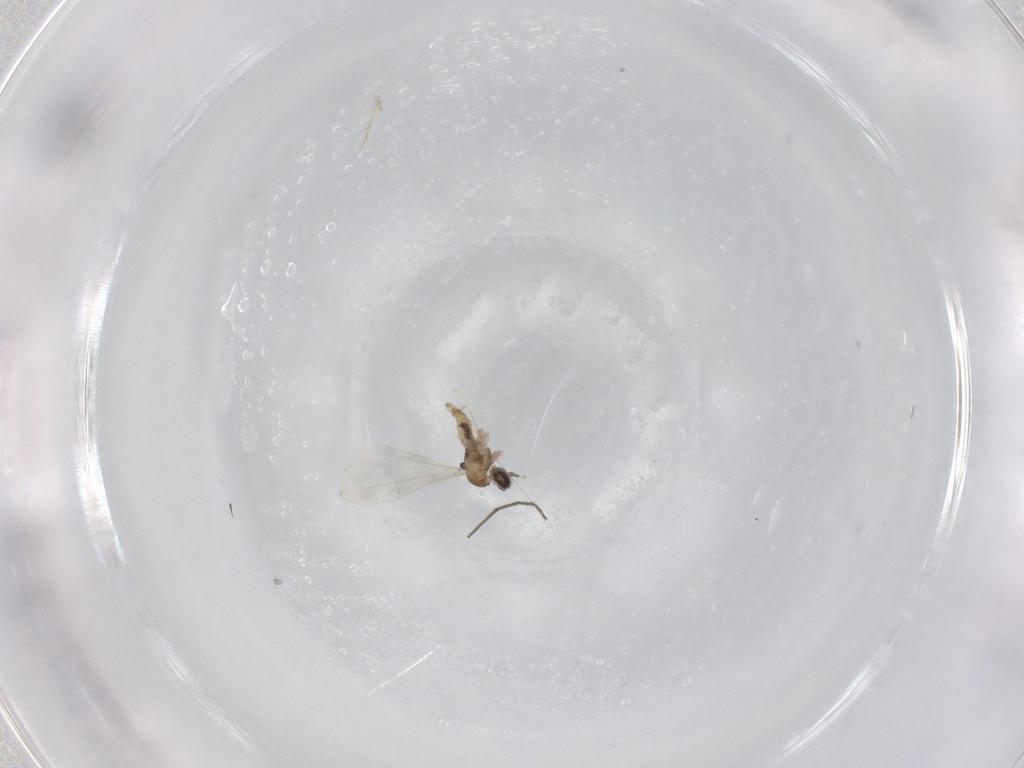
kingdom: Animalia
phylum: Arthropoda
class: Insecta
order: Diptera
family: Cecidomyiidae
